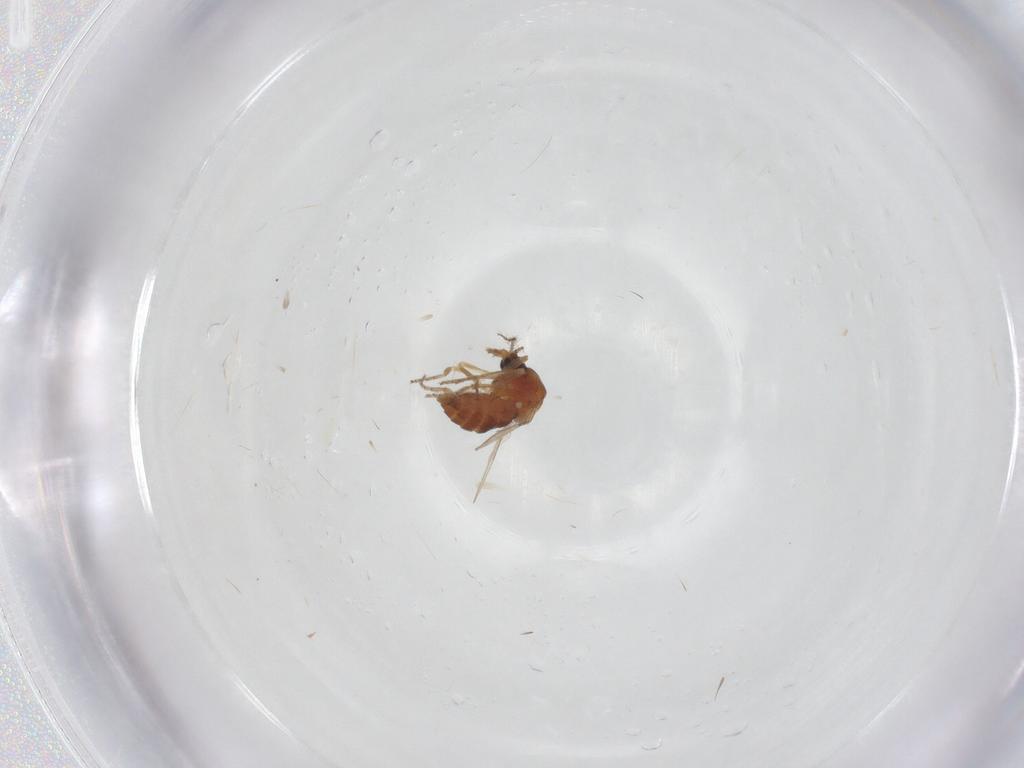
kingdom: Animalia
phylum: Arthropoda
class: Insecta
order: Diptera
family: Ceratopogonidae
